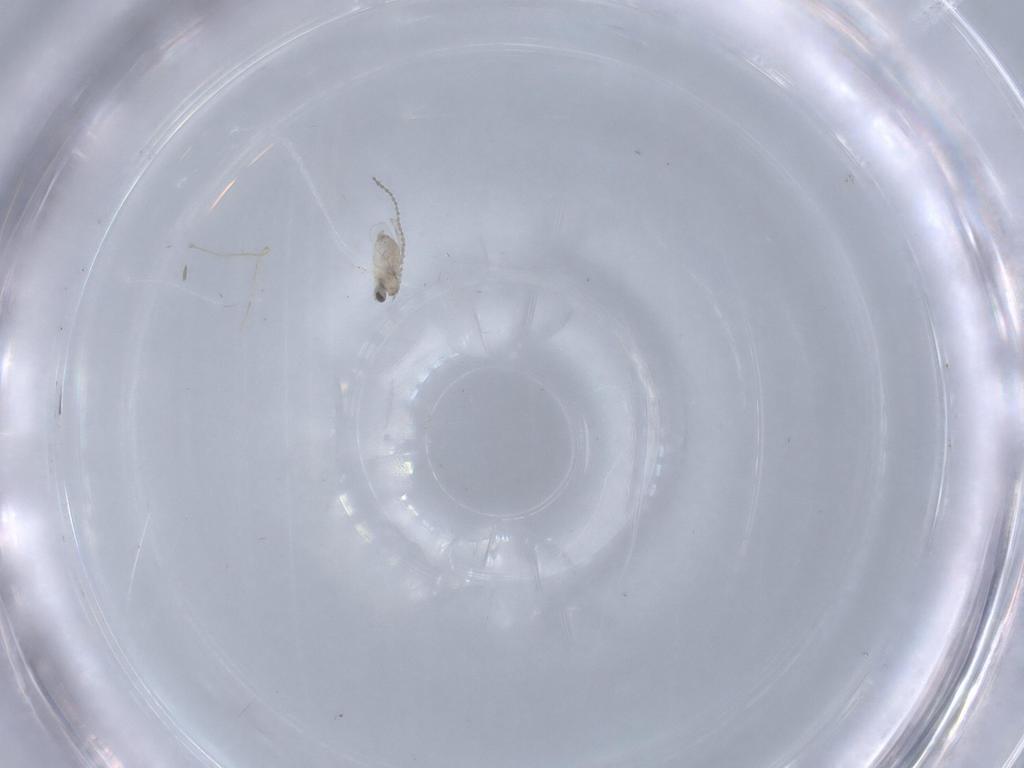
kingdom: Animalia
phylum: Arthropoda
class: Insecta
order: Diptera
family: Cecidomyiidae
